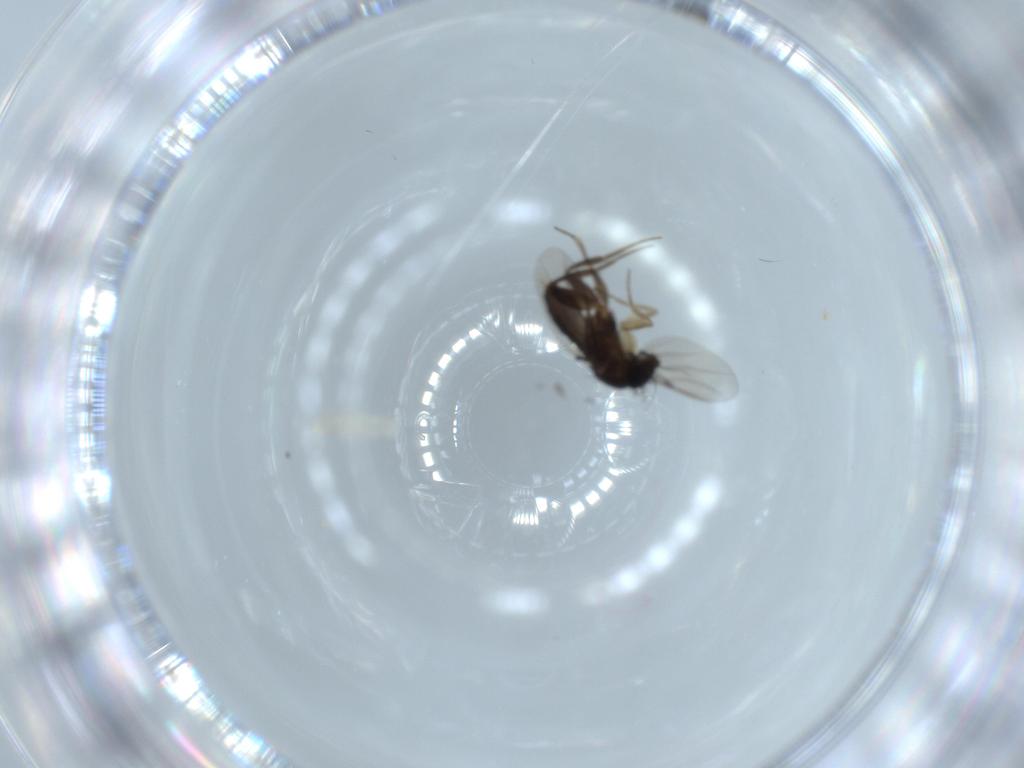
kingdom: Animalia
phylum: Arthropoda
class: Insecta
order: Diptera
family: Phoridae
